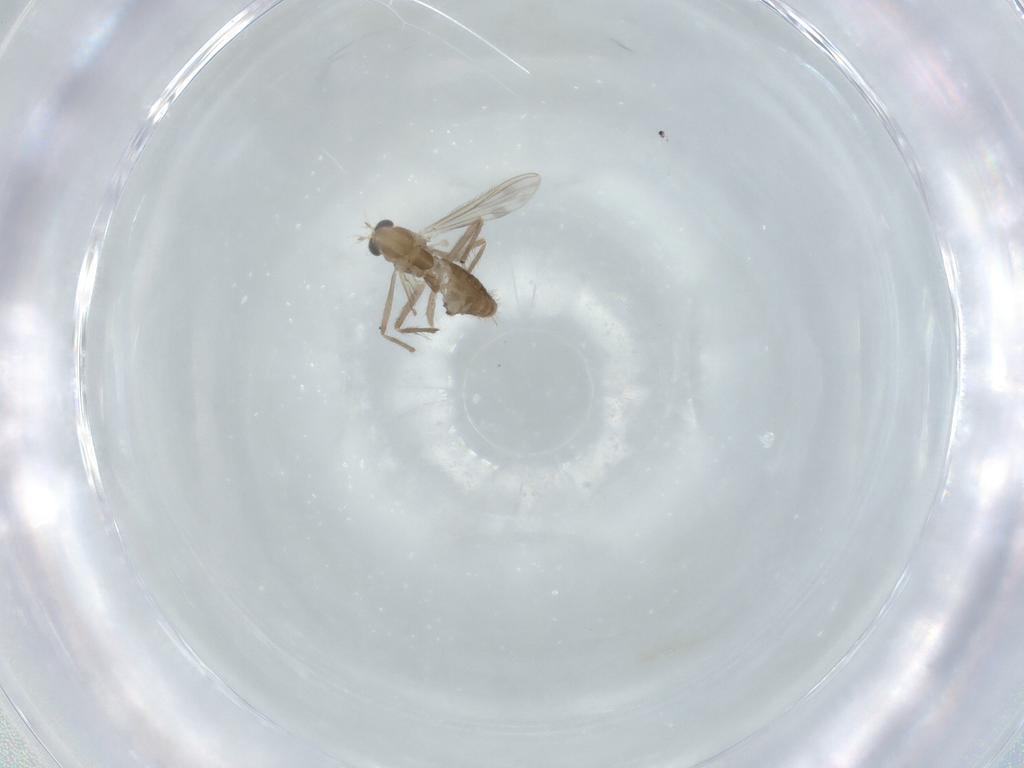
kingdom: Animalia
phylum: Arthropoda
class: Insecta
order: Diptera
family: Chironomidae
